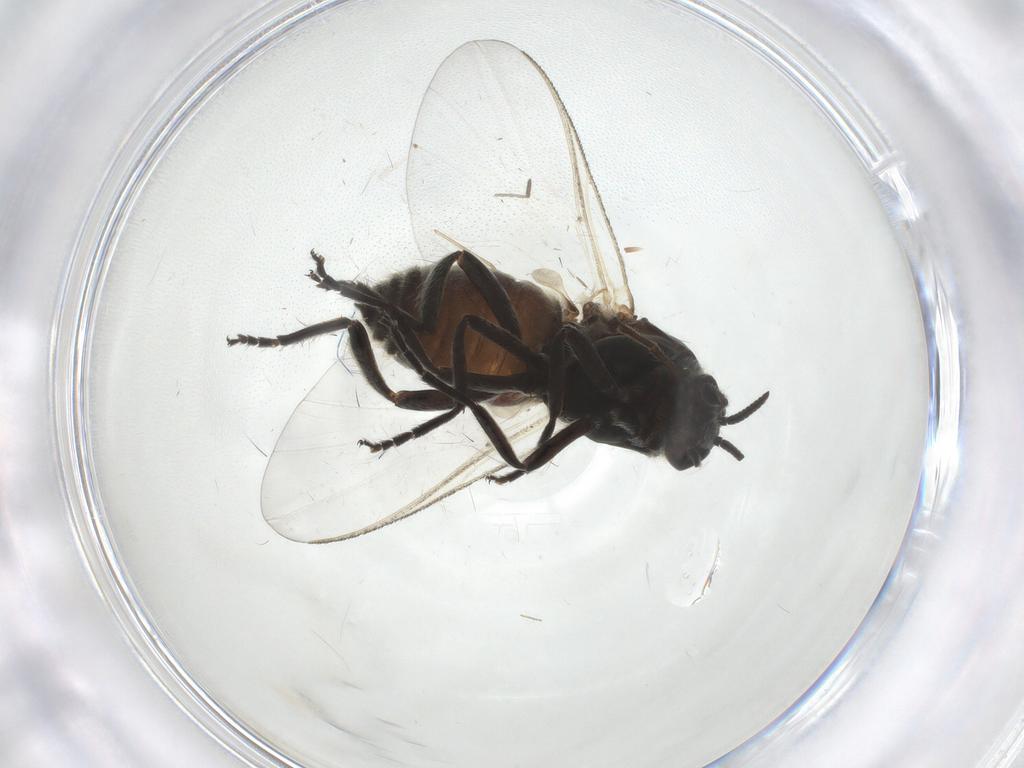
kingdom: Animalia
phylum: Arthropoda
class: Insecta
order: Diptera
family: Simuliidae
